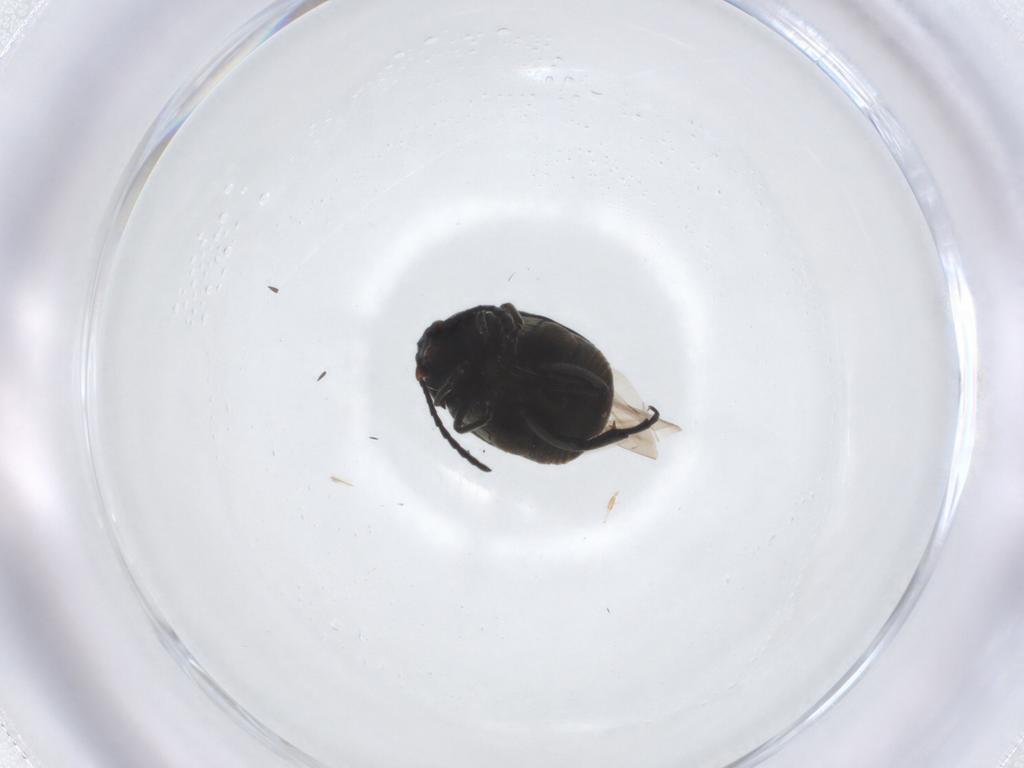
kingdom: Animalia
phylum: Arthropoda
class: Insecta
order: Coleoptera
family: Chrysomelidae
